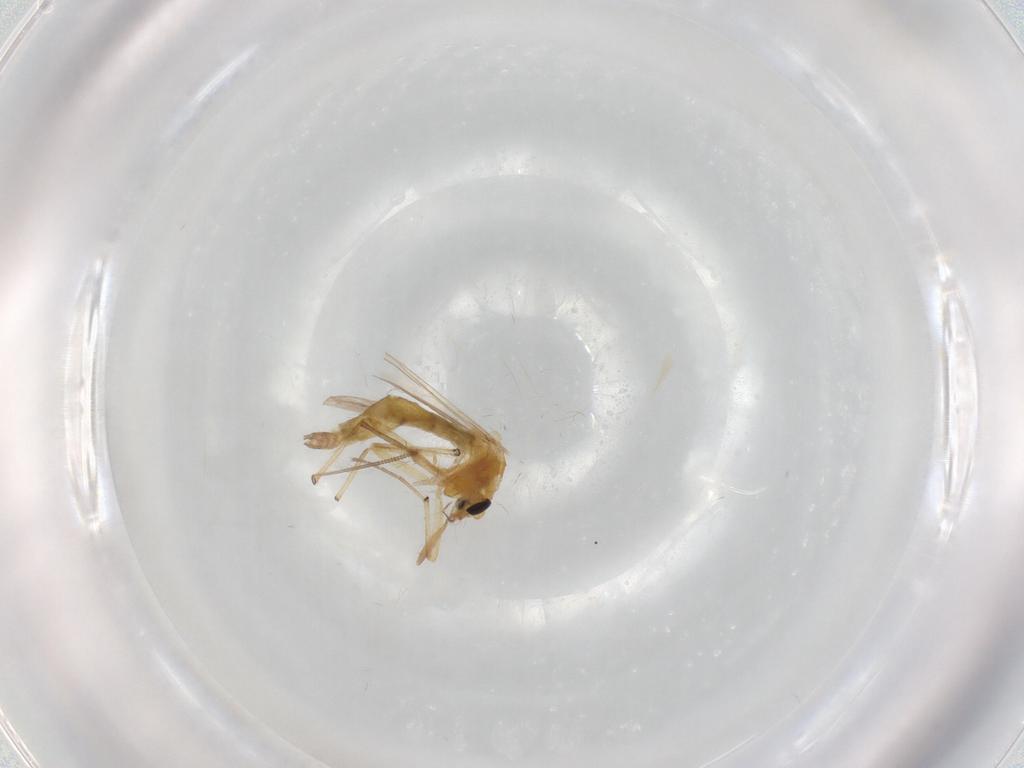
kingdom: Animalia
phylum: Arthropoda
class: Insecta
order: Diptera
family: Chironomidae
